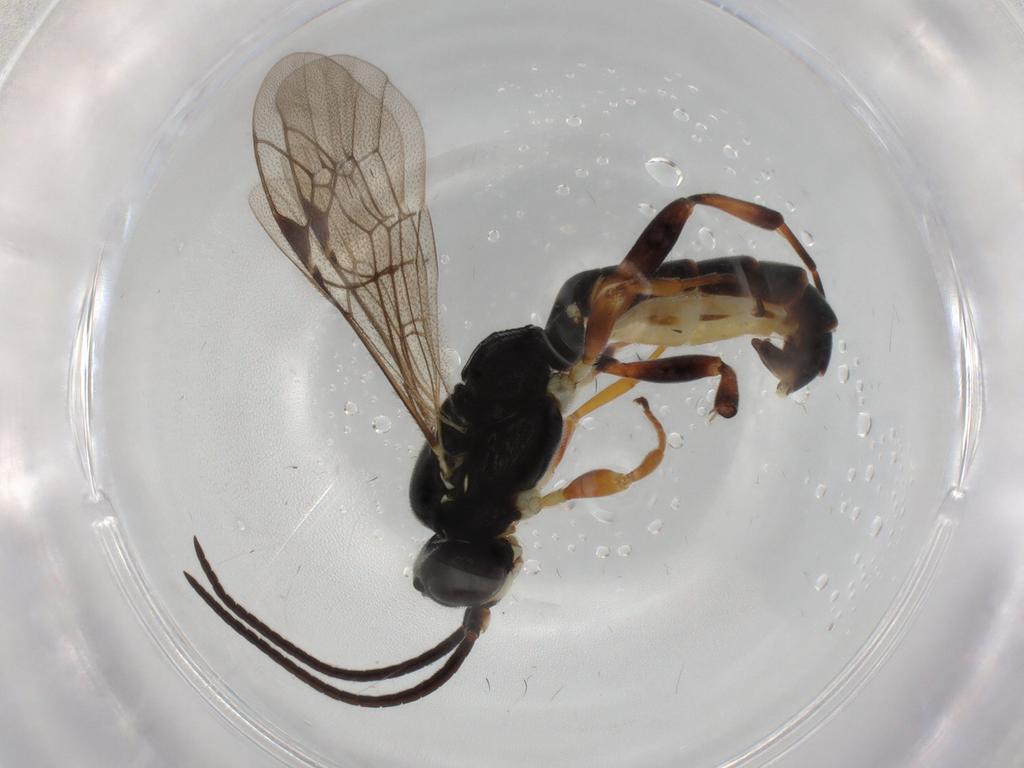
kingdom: Animalia
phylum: Arthropoda
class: Insecta
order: Hymenoptera
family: Ichneumonidae
